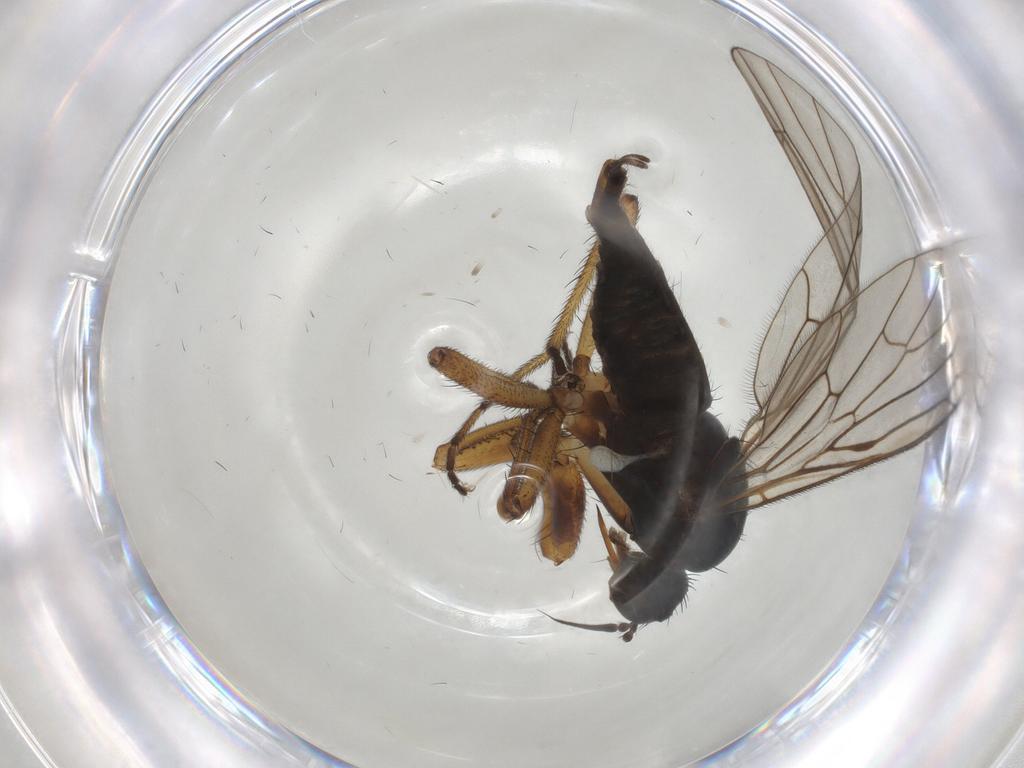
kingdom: Animalia
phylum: Arthropoda
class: Insecta
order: Diptera
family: Empididae
